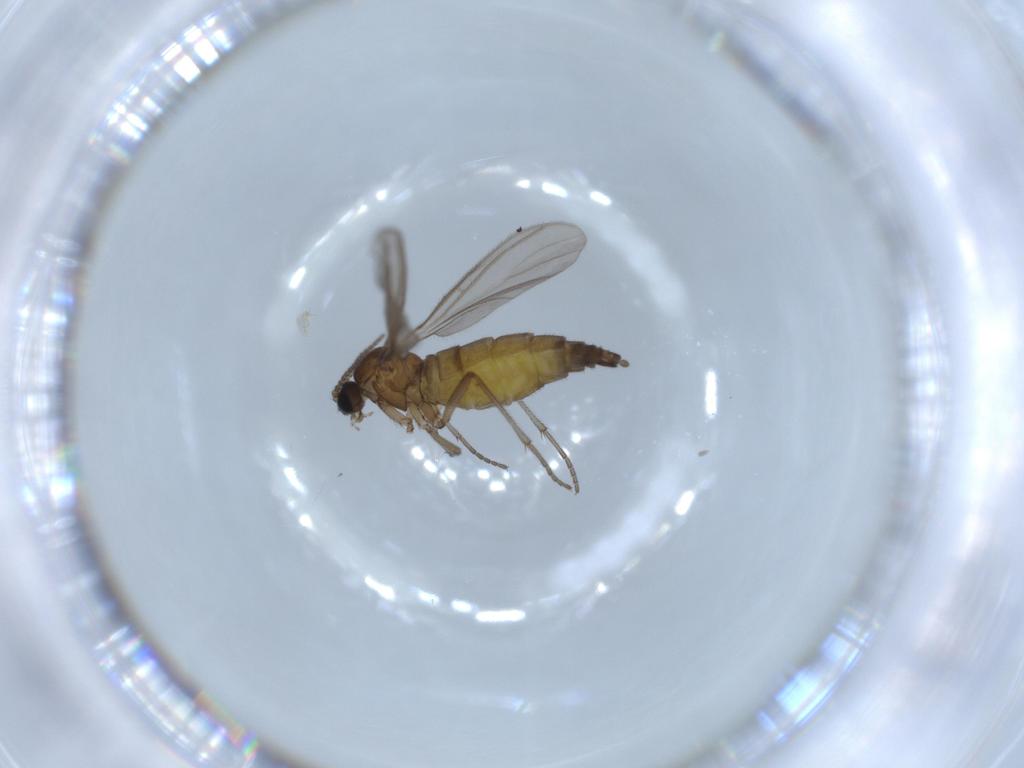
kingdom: Animalia
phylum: Arthropoda
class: Insecta
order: Diptera
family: Sciaridae
